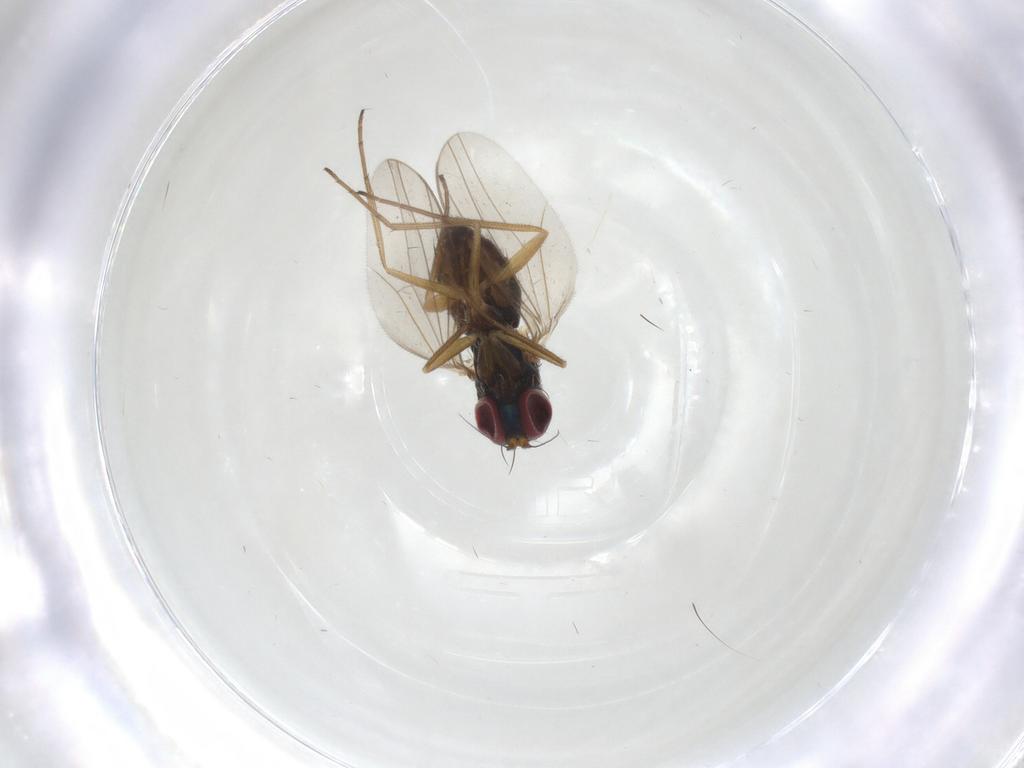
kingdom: Animalia
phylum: Arthropoda
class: Insecta
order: Diptera
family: Dolichopodidae
